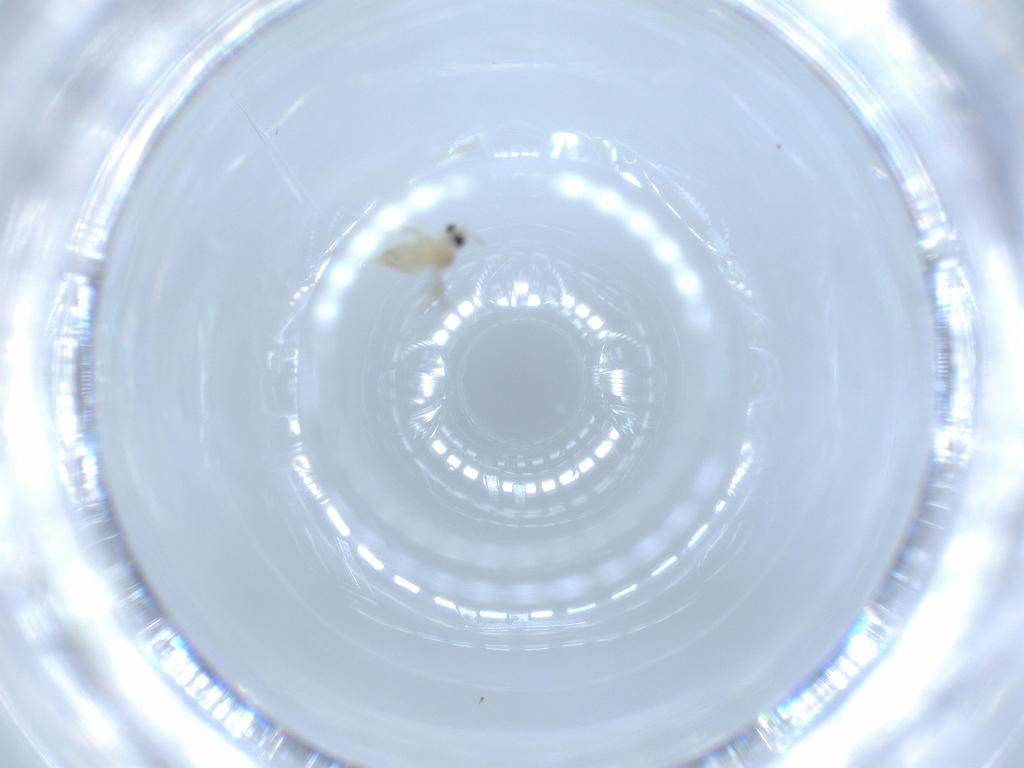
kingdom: Animalia
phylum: Arthropoda
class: Insecta
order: Diptera
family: Cecidomyiidae
